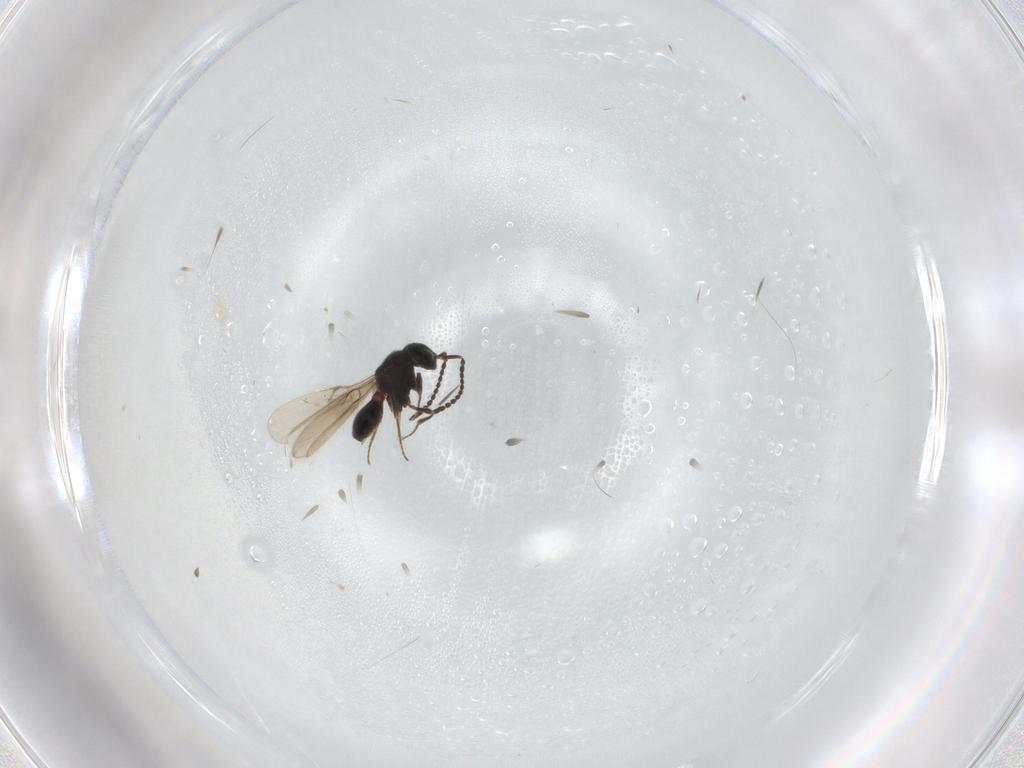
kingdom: Animalia
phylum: Arthropoda
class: Insecta
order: Hymenoptera
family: Scelionidae
